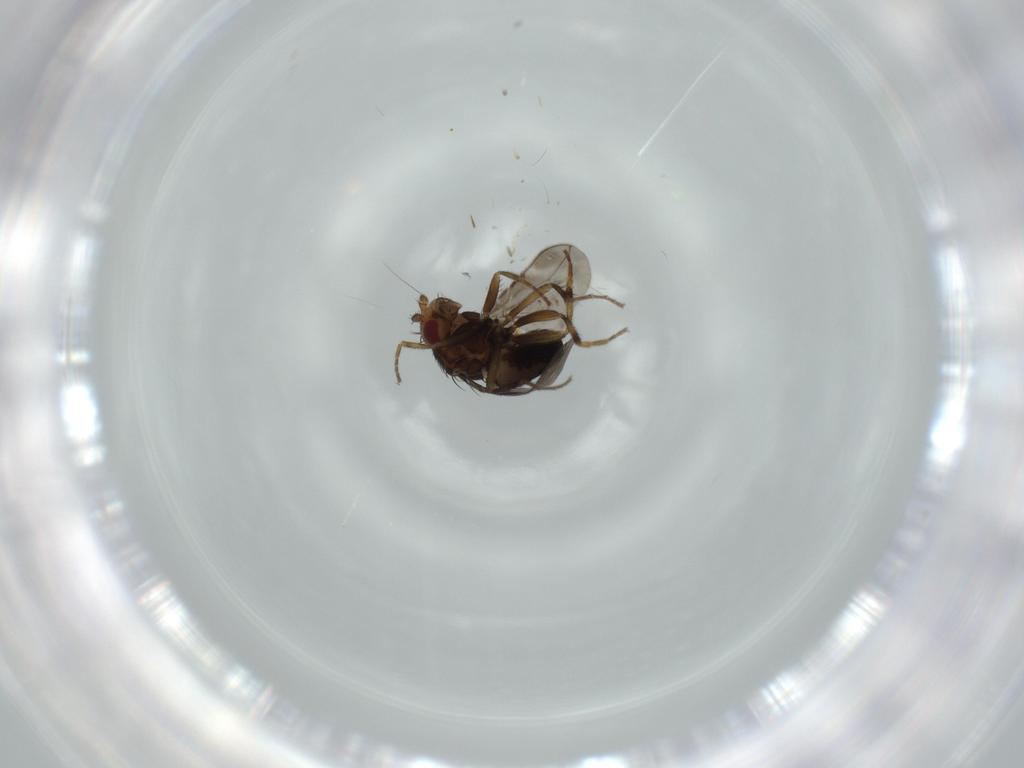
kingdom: Animalia
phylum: Arthropoda
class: Insecta
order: Diptera
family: Sphaeroceridae
